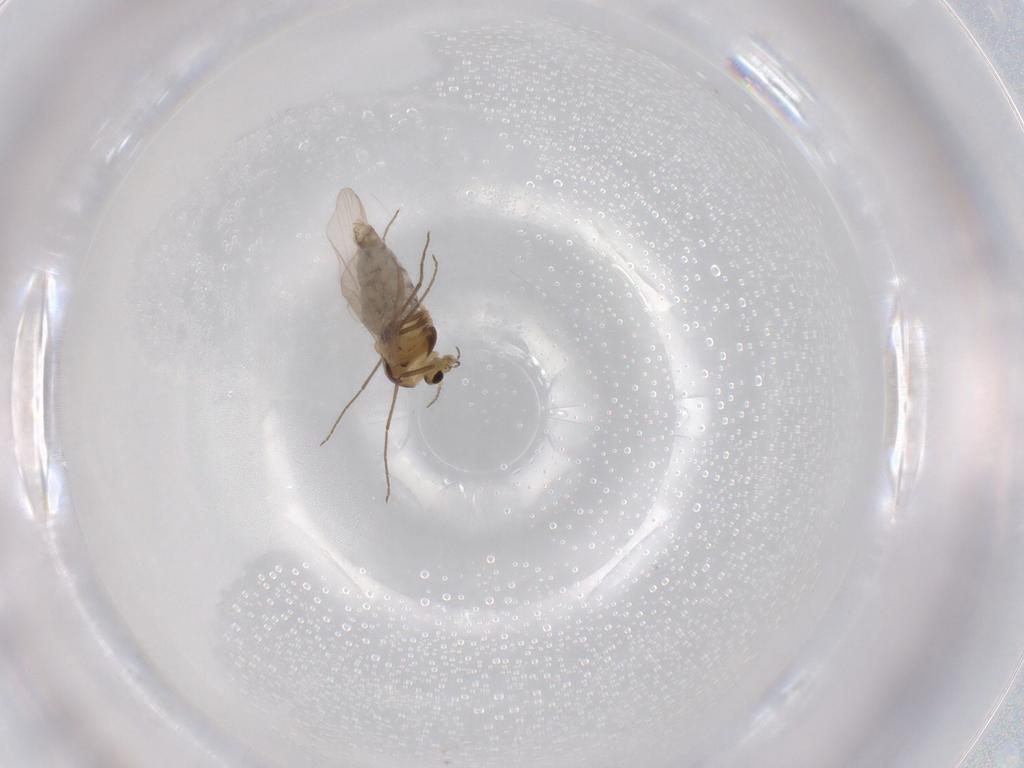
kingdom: Animalia
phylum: Arthropoda
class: Insecta
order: Diptera
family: Chironomidae
